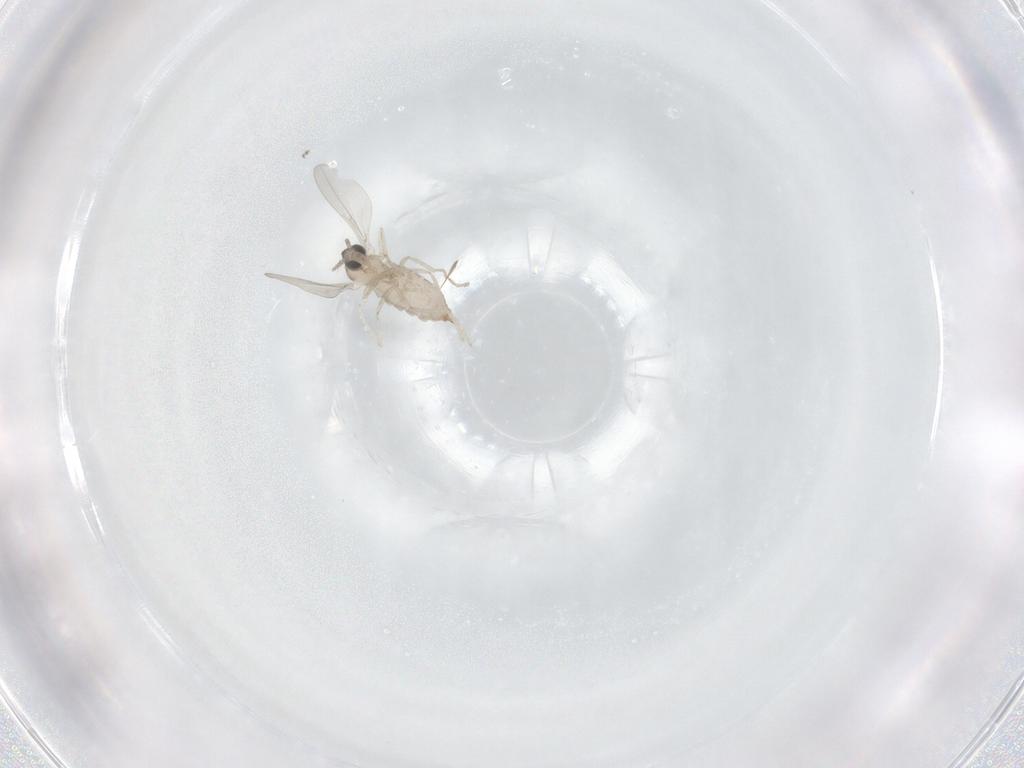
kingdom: Animalia
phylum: Arthropoda
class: Insecta
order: Diptera
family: Cecidomyiidae
